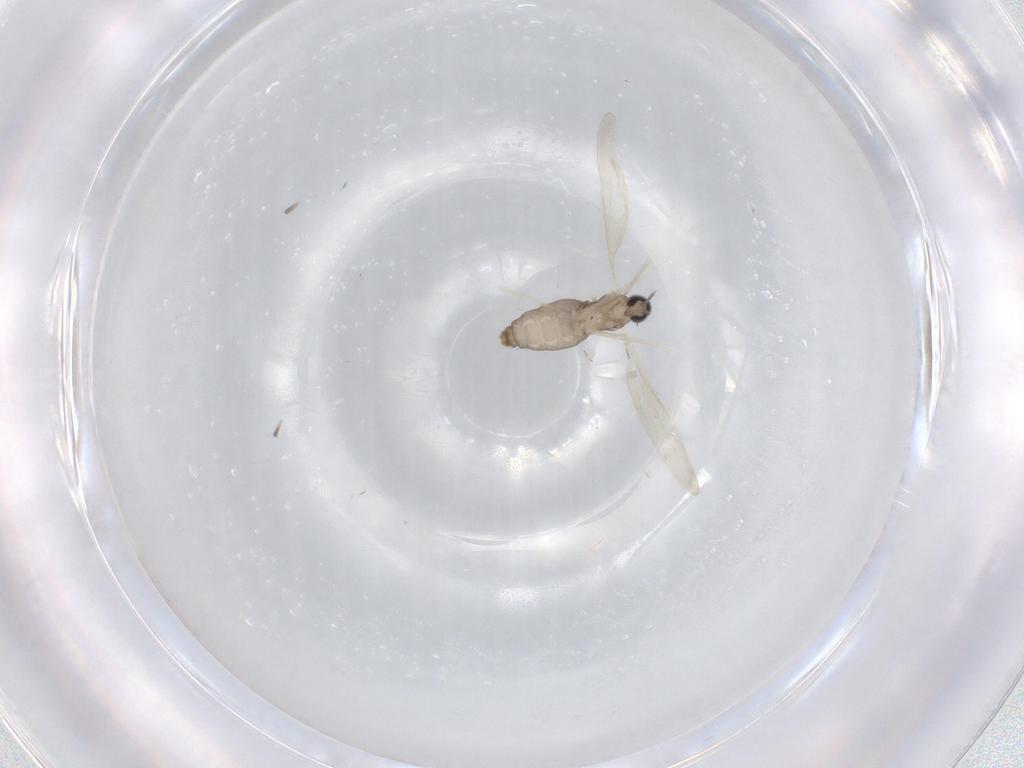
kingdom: Animalia
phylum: Arthropoda
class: Insecta
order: Diptera
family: Cecidomyiidae
